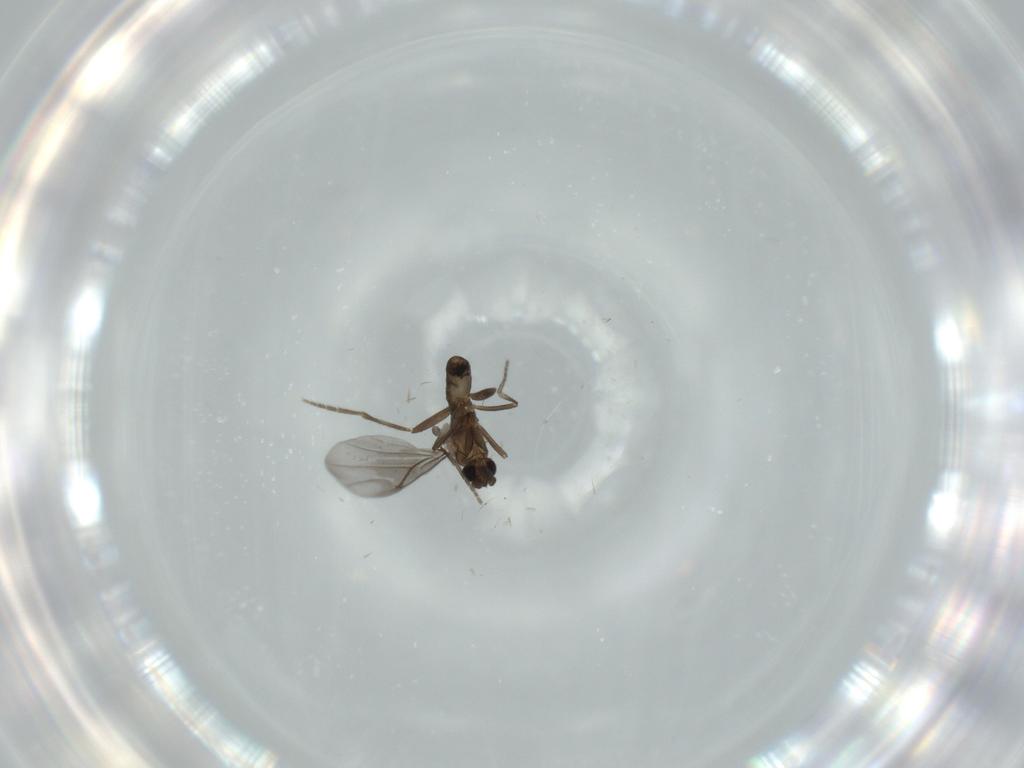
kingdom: Animalia
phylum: Arthropoda
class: Insecta
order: Diptera
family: Phoridae
